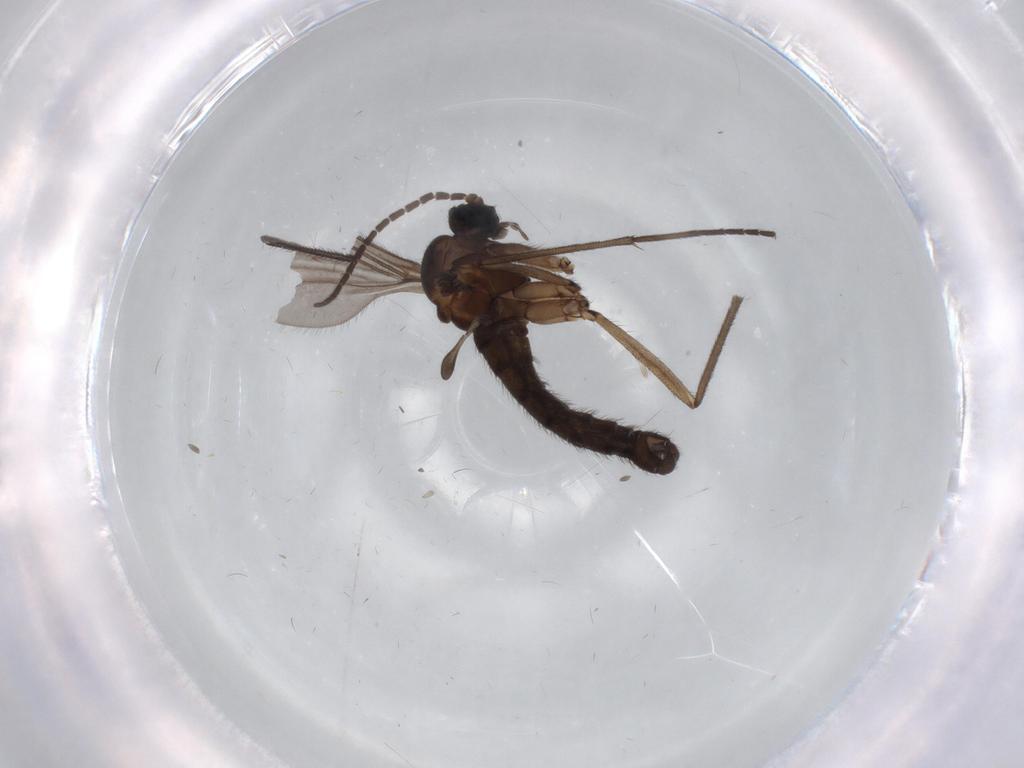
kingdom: Animalia
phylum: Arthropoda
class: Insecta
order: Diptera
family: Sciaridae
